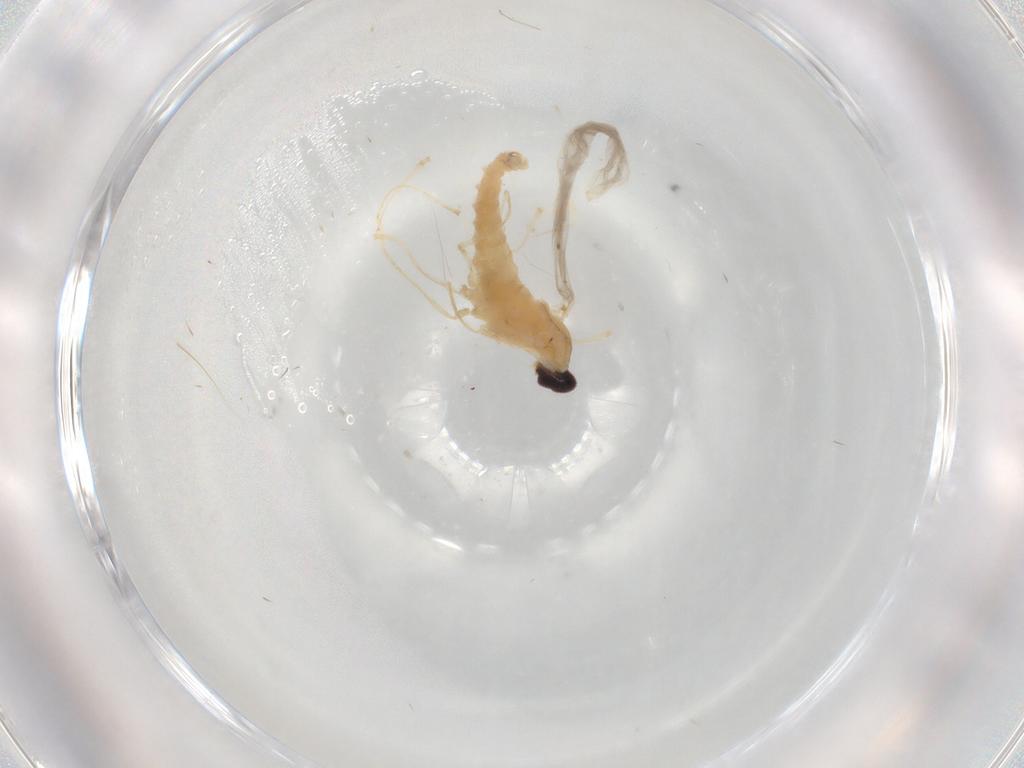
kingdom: Animalia
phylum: Arthropoda
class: Insecta
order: Diptera
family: Cecidomyiidae
